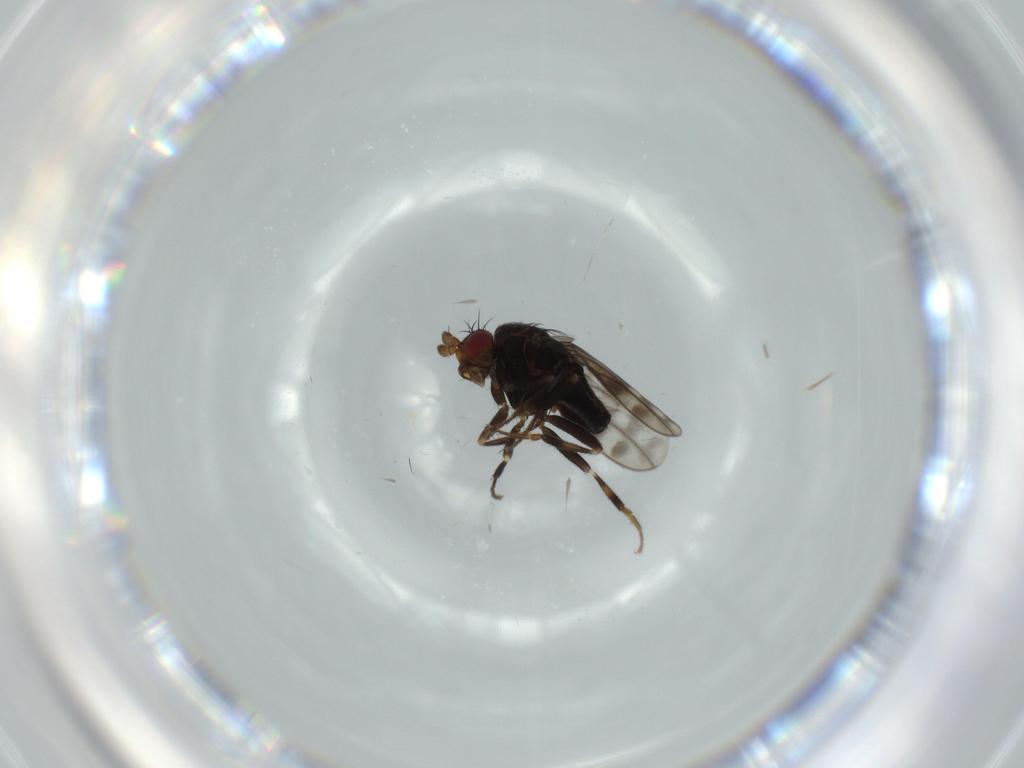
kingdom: Animalia
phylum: Arthropoda
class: Insecta
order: Diptera
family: Sphaeroceridae
